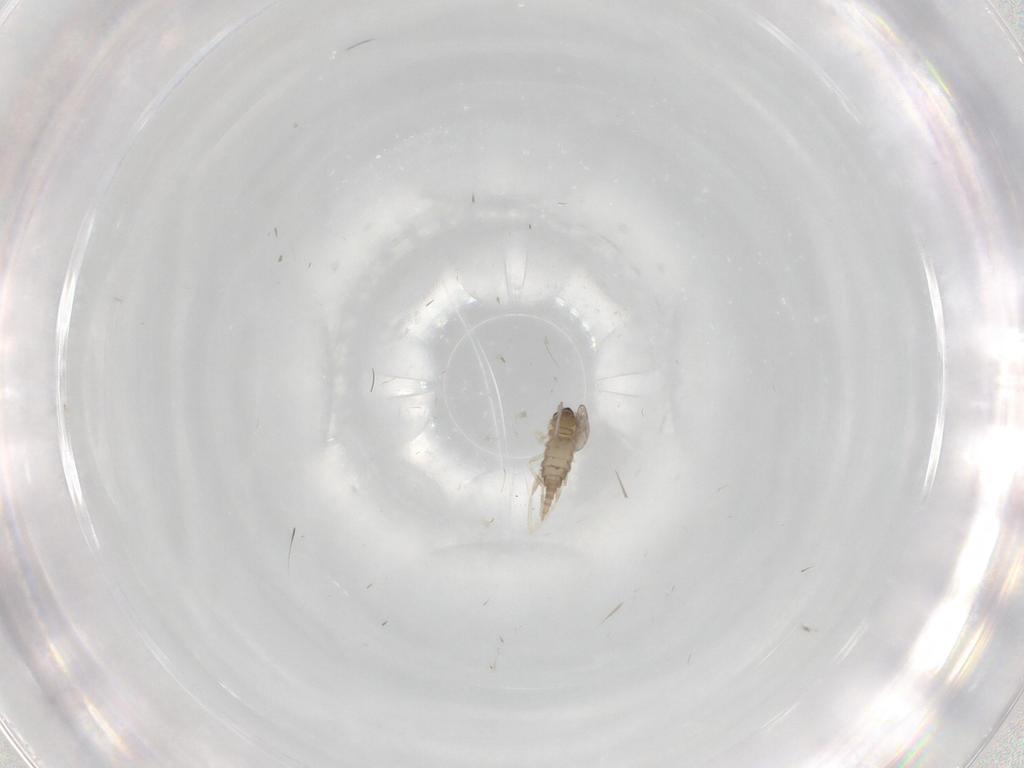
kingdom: Animalia
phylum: Arthropoda
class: Insecta
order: Diptera
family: Cecidomyiidae
